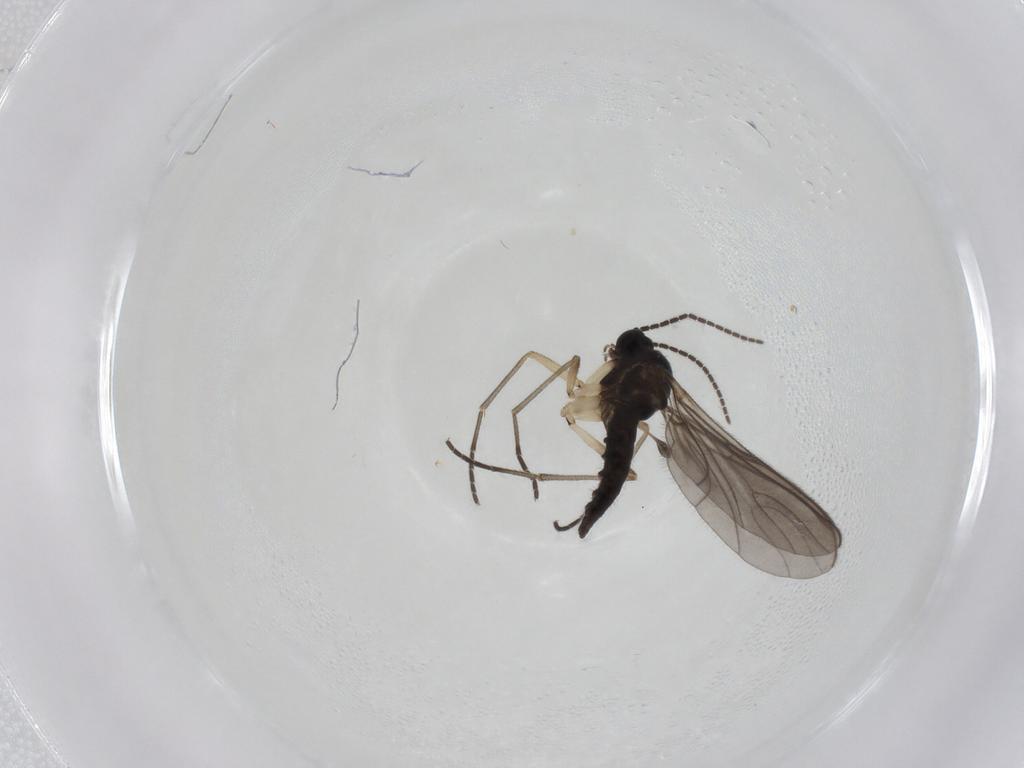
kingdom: Animalia
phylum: Arthropoda
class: Insecta
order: Diptera
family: Sciaridae
